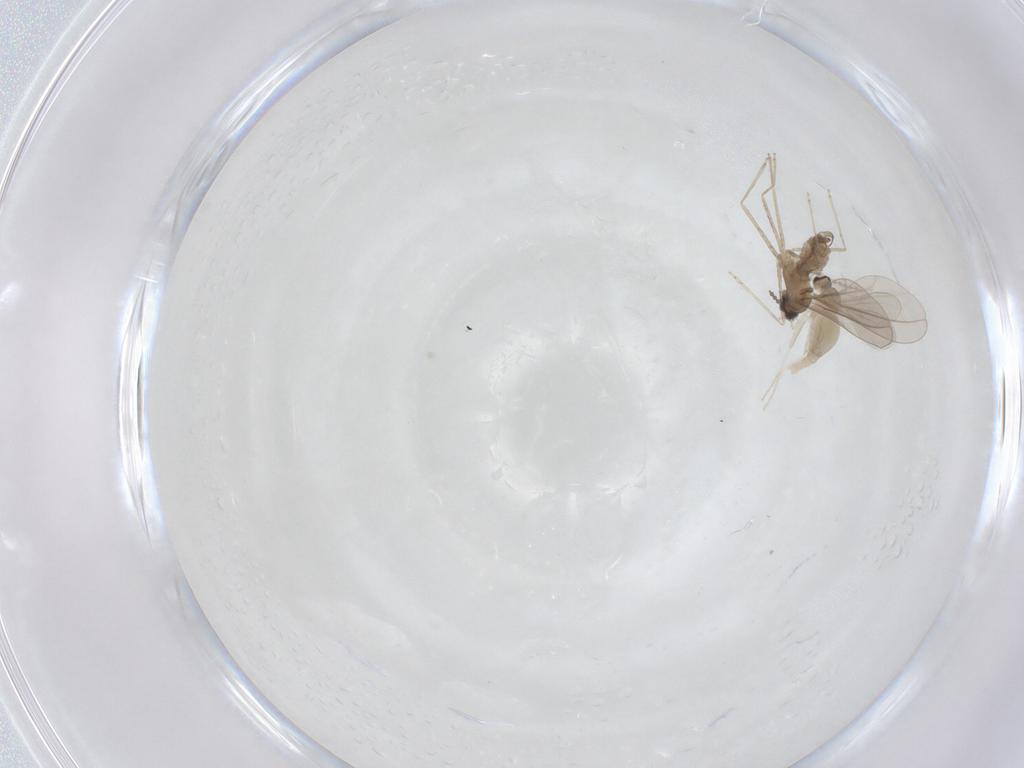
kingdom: Animalia
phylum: Arthropoda
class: Insecta
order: Diptera
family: Cecidomyiidae
